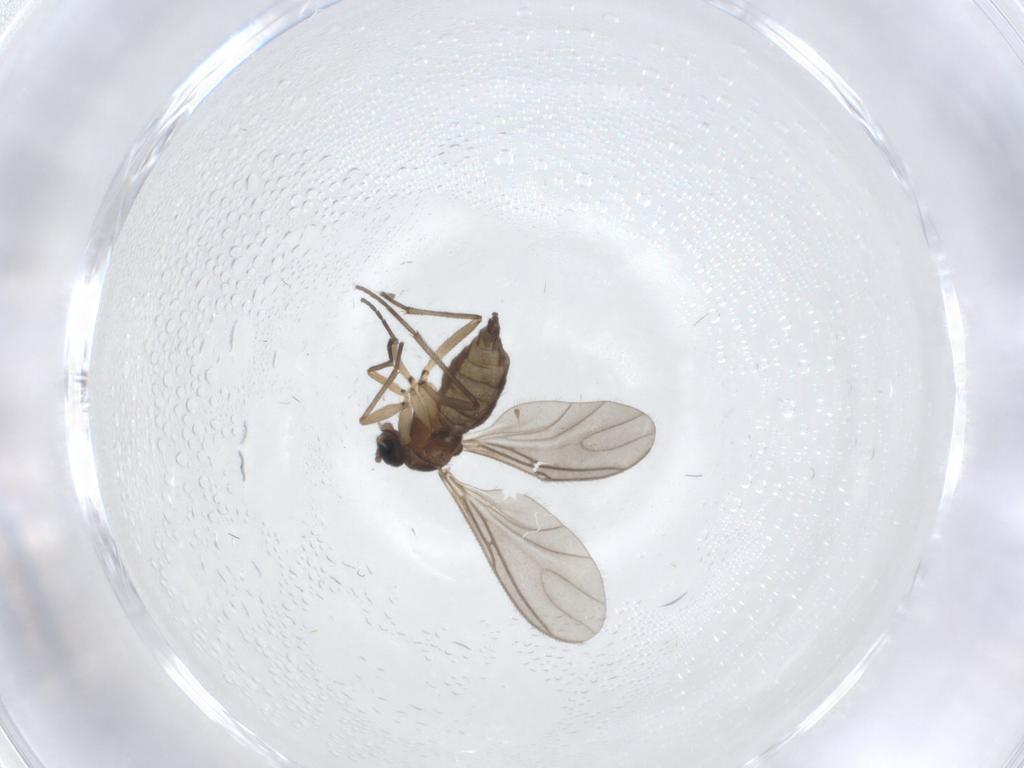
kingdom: Animalia
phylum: Arthropoda
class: Insecta
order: Diptera
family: Sciaridae
